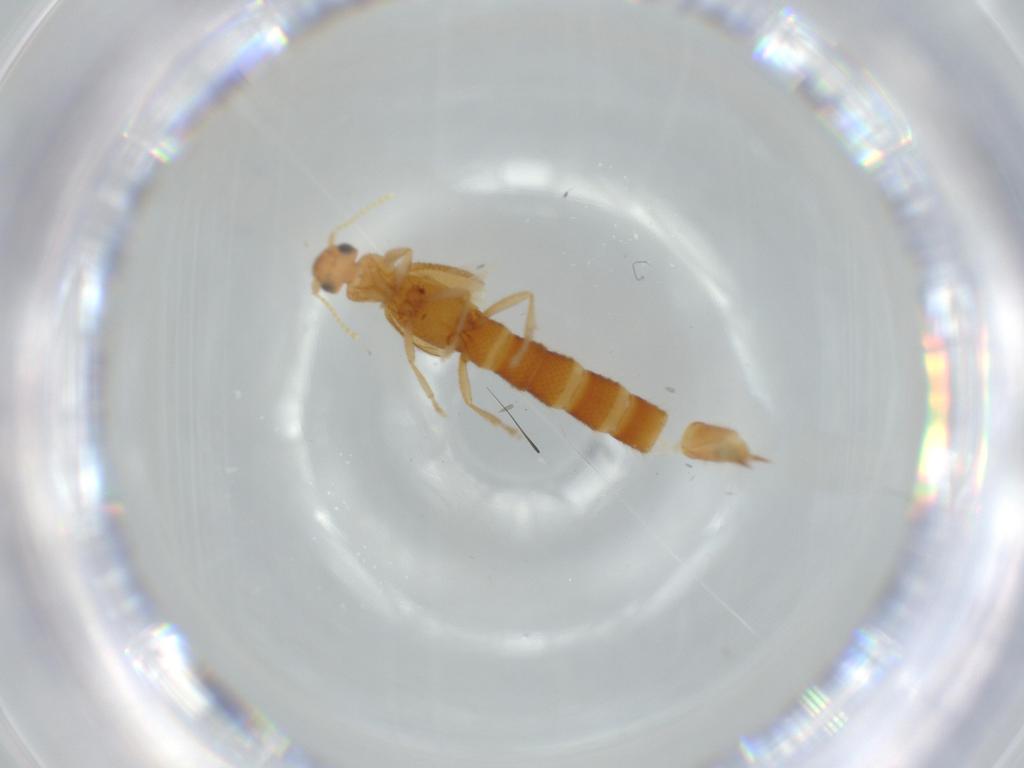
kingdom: Animalia
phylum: Arthropoda
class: Insecta
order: Coleoptera
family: Staphylinidae
